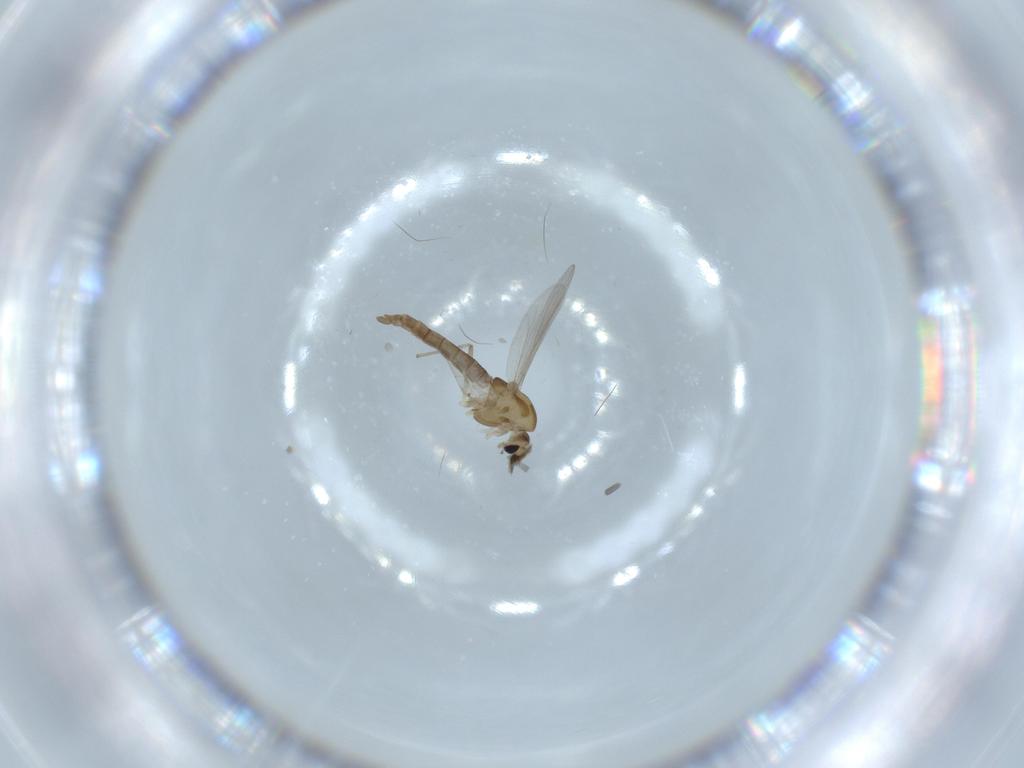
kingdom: Animalia
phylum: Arthropoda
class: Insecta
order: Diptera
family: Chironomidae
